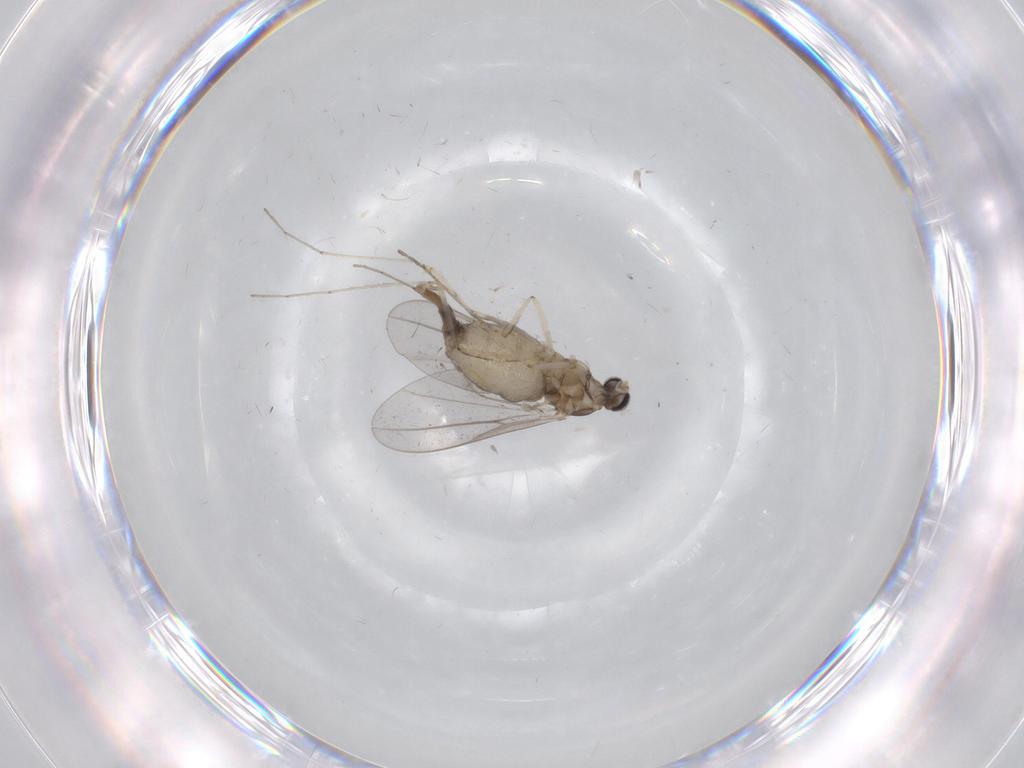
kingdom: Animalia
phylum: Arthropoda
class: Insecta
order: Diptera
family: Cecidomyiidae
